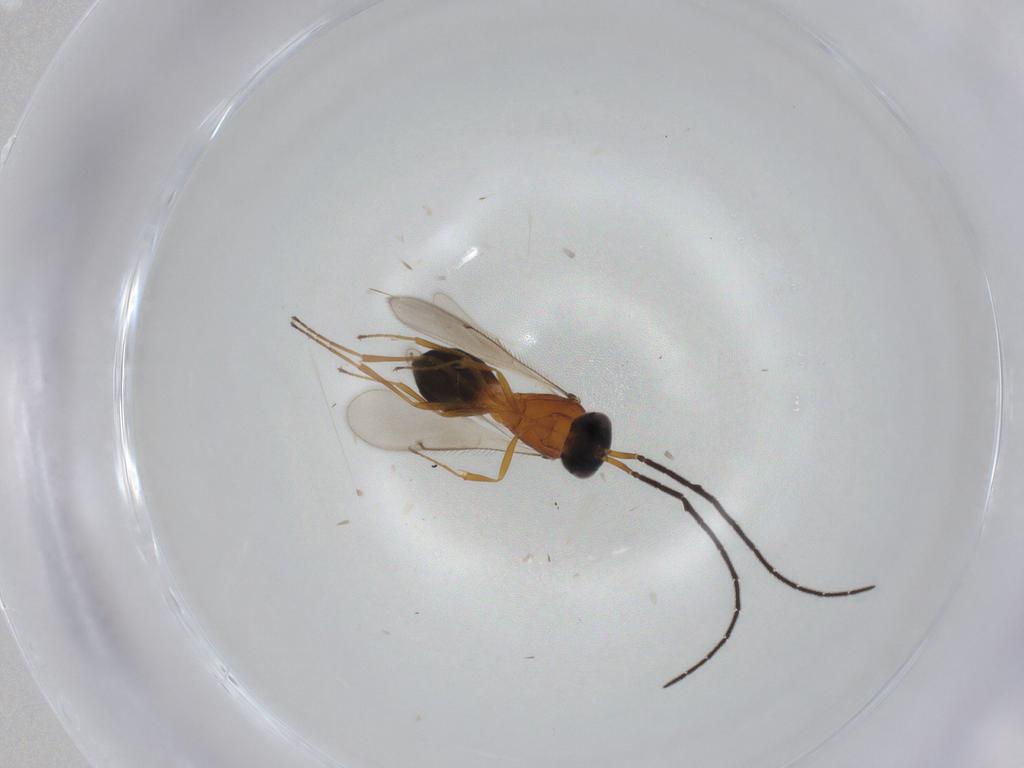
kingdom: Animalia
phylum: Arthropoda
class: Insecta
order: Hymenoptera
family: Scelionidae
